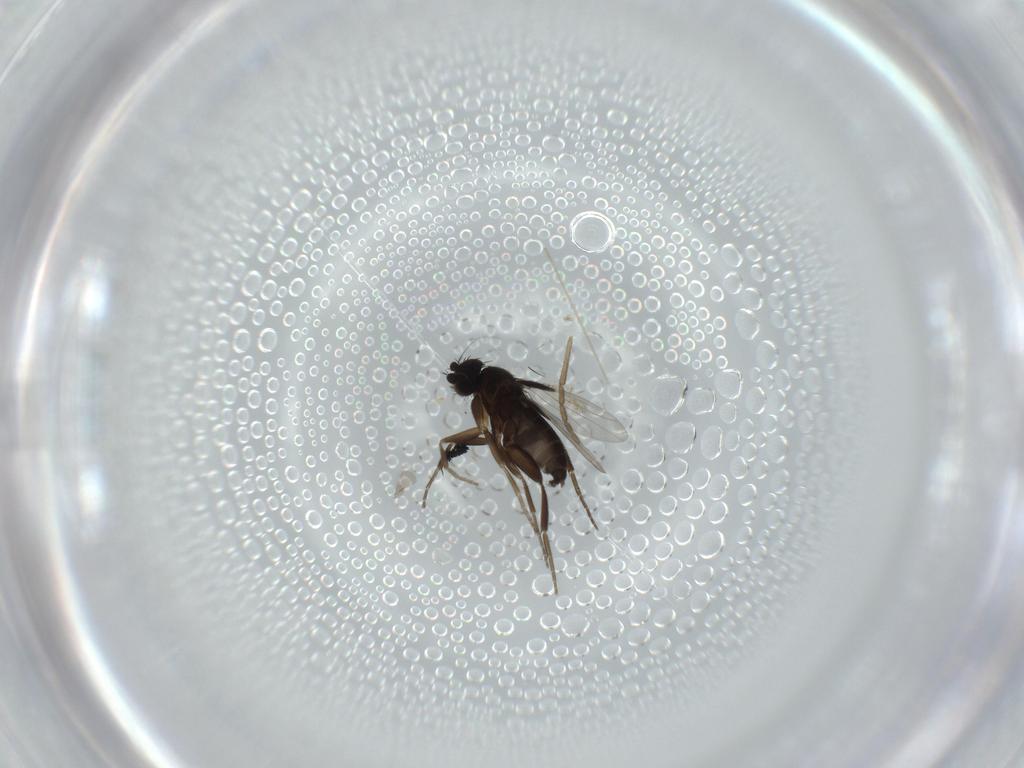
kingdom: Animalia
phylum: Arthropoda
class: Insecta
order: Diptera
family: Phoridae
